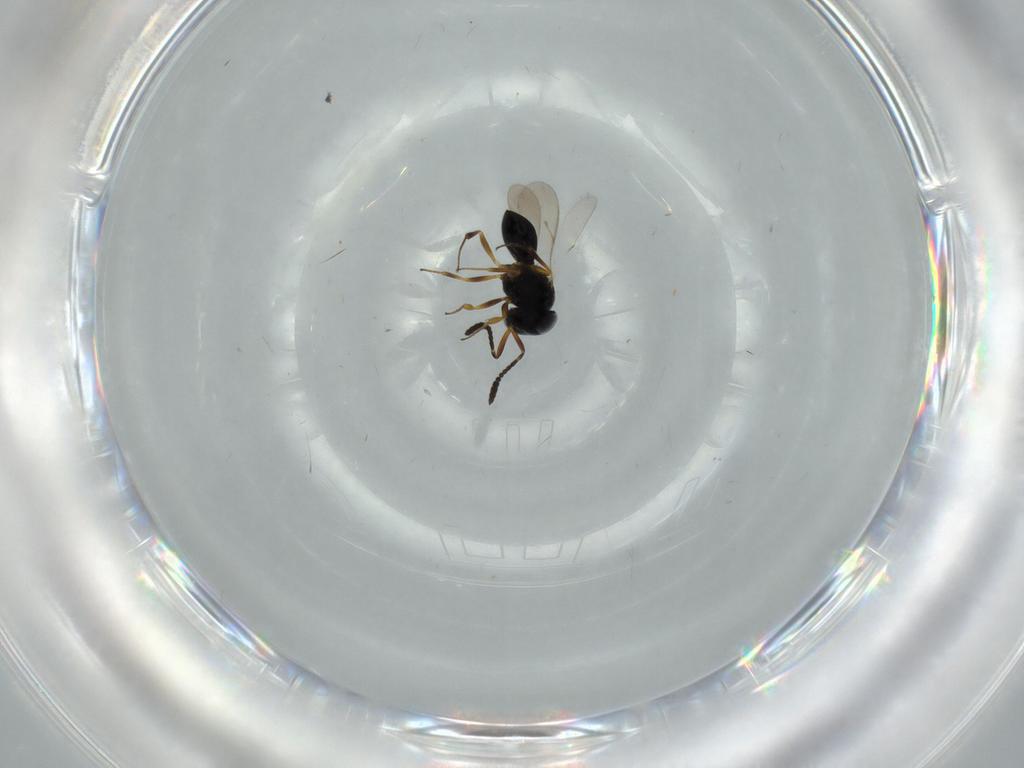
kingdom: Animalia
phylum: Arthropoda
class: Insecta
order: Hymenoptera
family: Scelionidae
